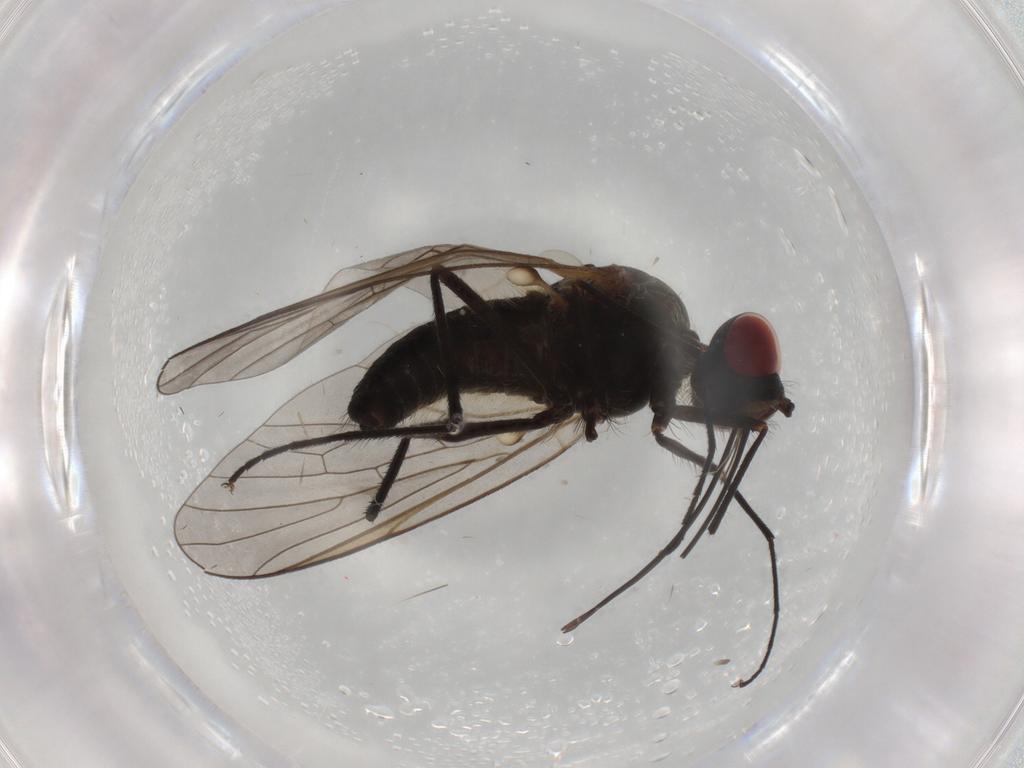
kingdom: Animalia
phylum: Arthropoda
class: Insecta
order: Diptera
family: Bombyliidae
